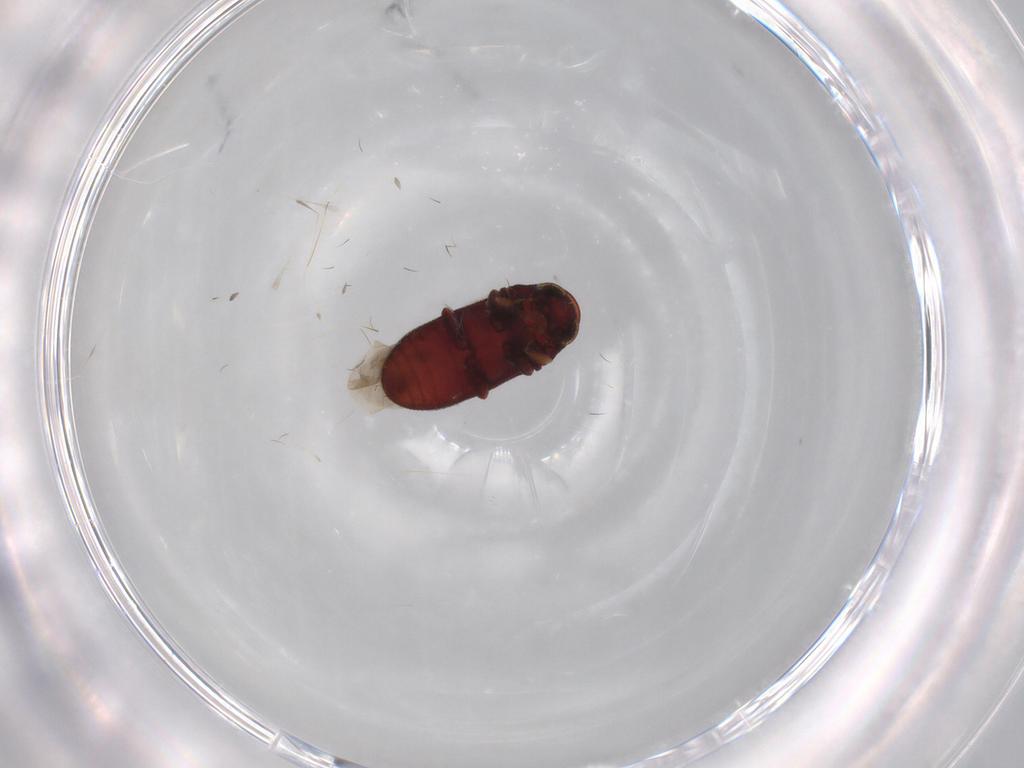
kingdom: Animalia
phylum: Arthropoda
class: Insecta
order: Coleoptera
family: Ptinidae
